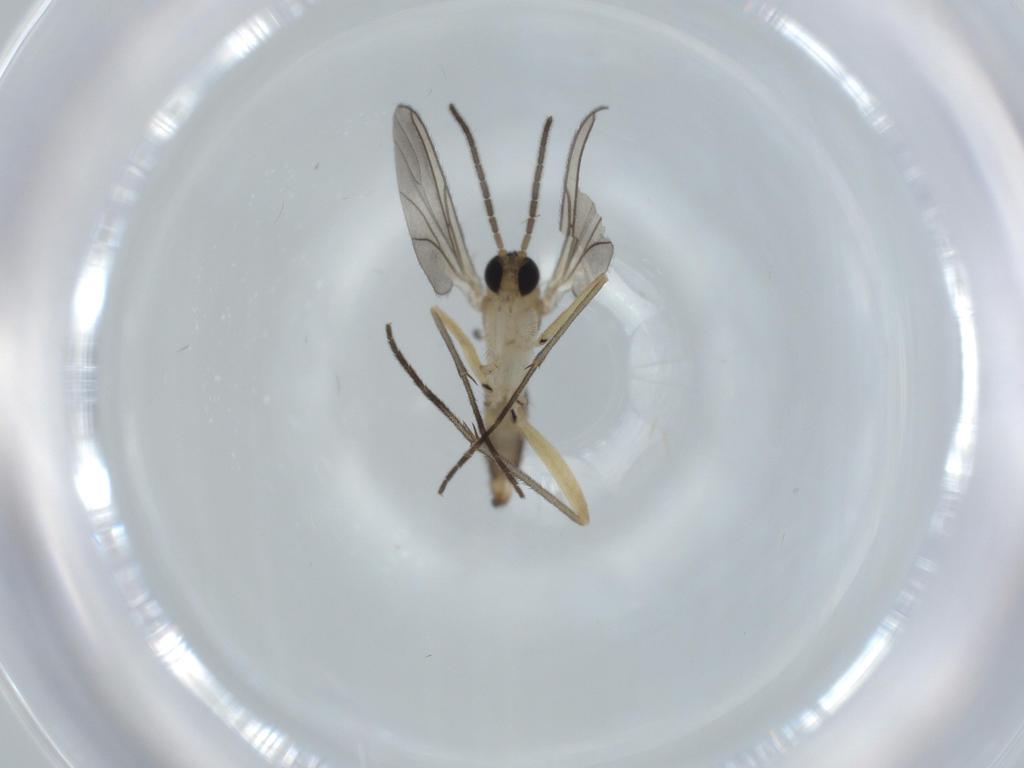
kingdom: Animalia
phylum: Arthropoda
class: Insecta
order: Diptera
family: Sciaridae
